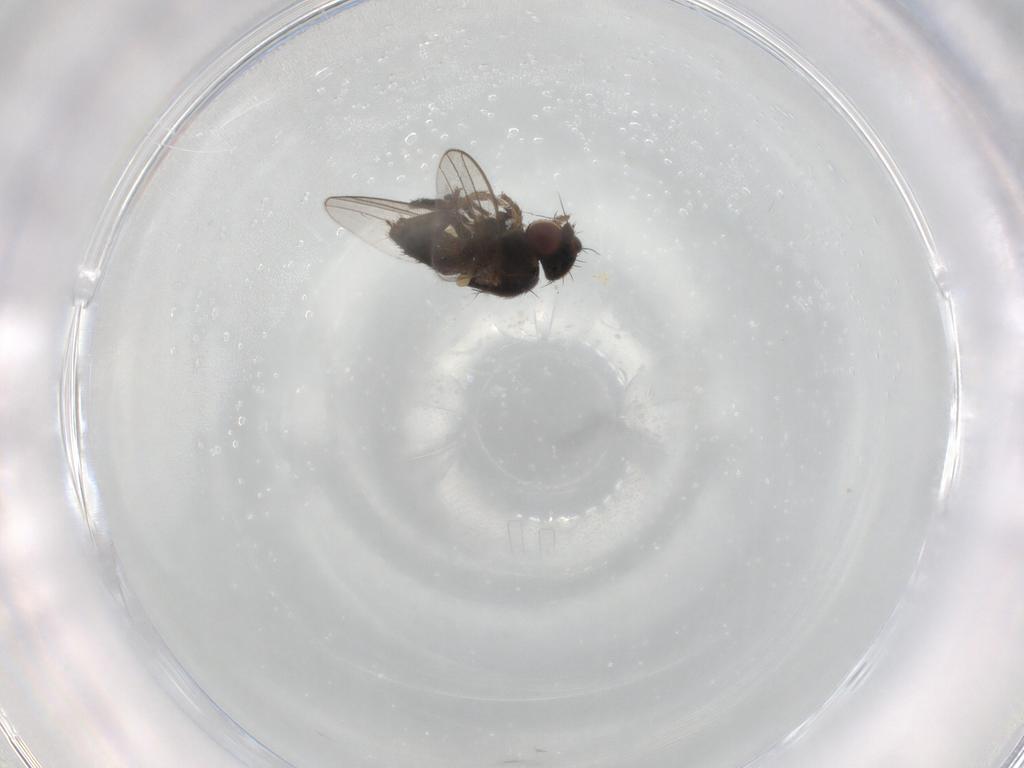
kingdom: Animalia
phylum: Arthropoda
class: Insecta
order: Diptera
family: Milichiidae
